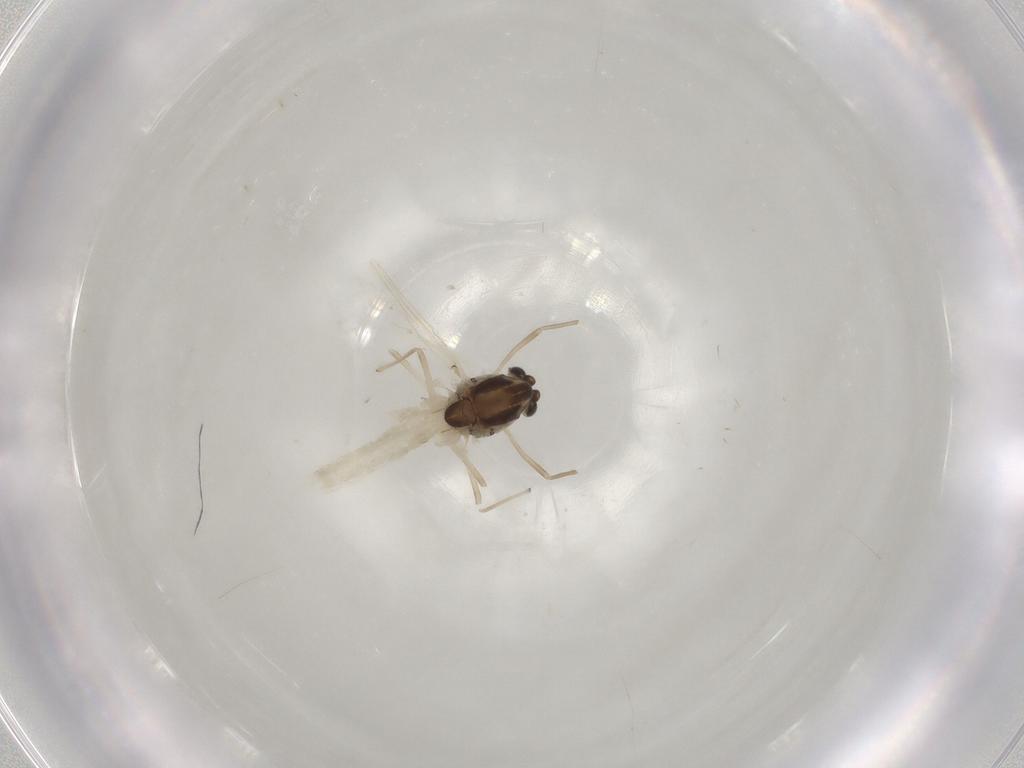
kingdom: Animalia
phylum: Arthropoda
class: Insecta
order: Diptera
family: Chironomidae
